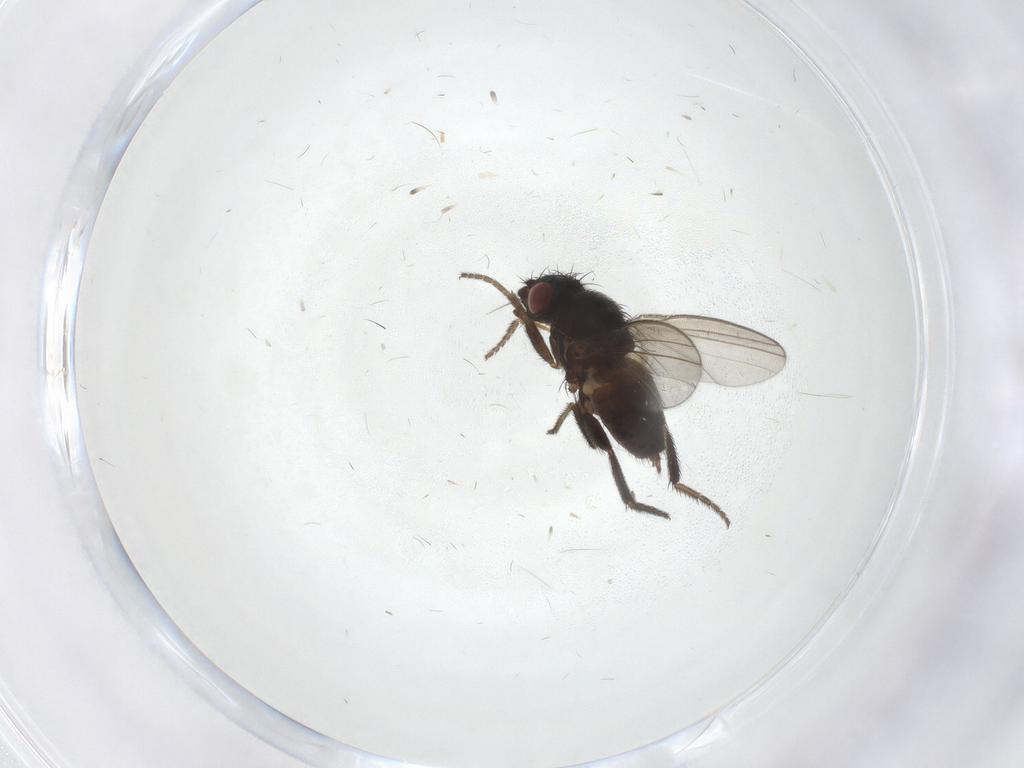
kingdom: Animalia
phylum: Arthropoda
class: Insecta
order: Diptera
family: Milichiidae
